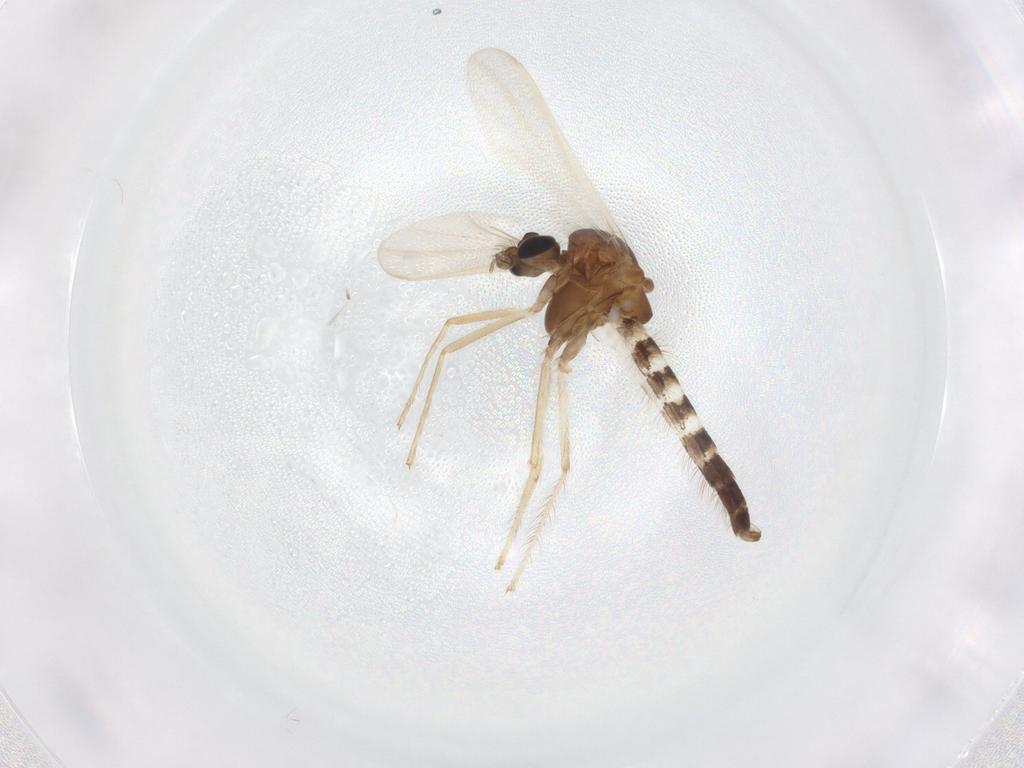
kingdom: Animalia
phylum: Arthropoda
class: Insecta
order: Diptera
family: Chironomidae
